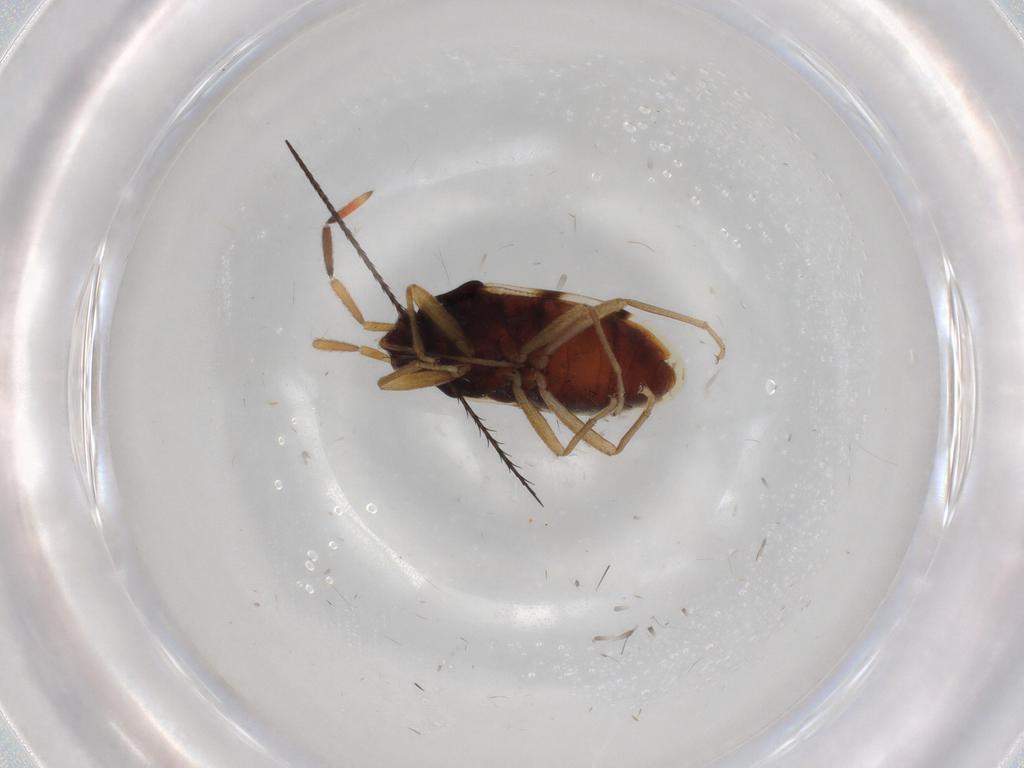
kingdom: Animalia
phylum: Arthropoda
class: Insecta
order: Hemiptera
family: Rhyparochromidae
